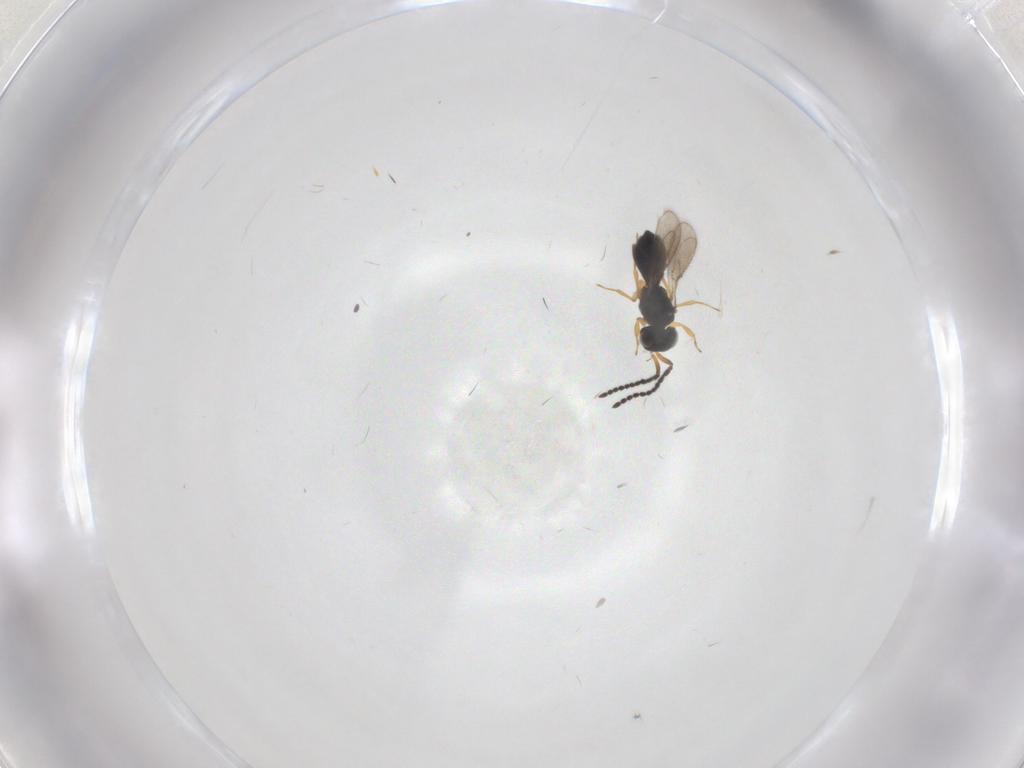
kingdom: Animalia
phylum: Arthropoda
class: Insecta
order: Hymenoptera
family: Scelionidae
